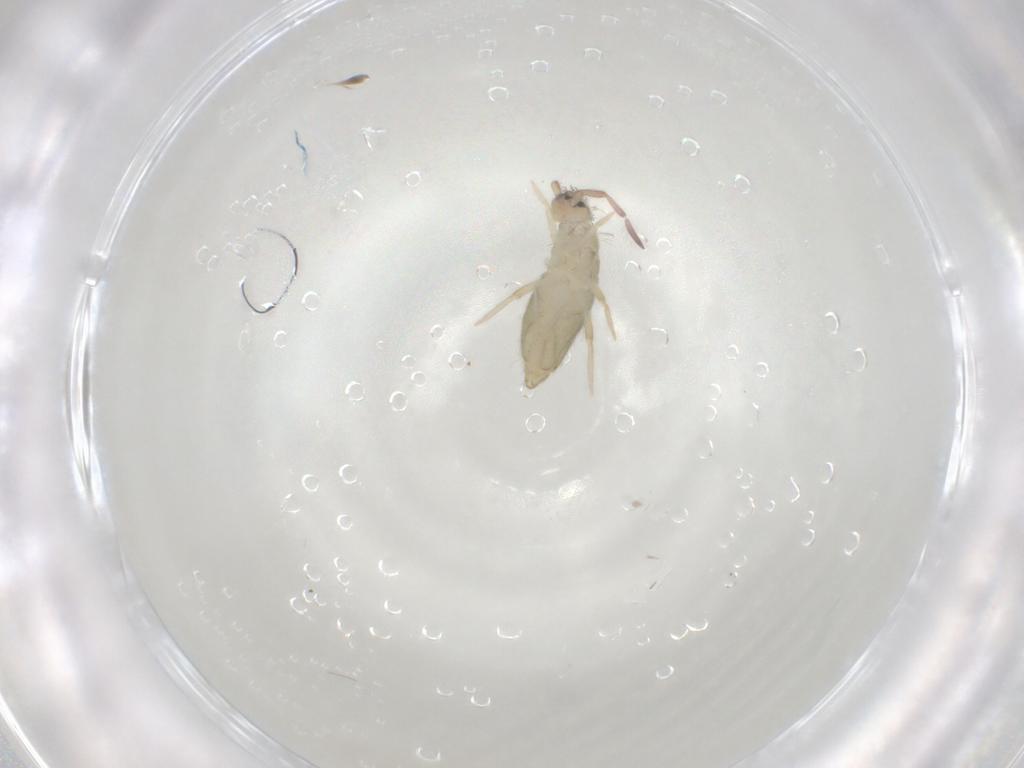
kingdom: Animalia
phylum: Arthropoda
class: Collembola
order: Entomobryomorpha
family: Entomobryidae
